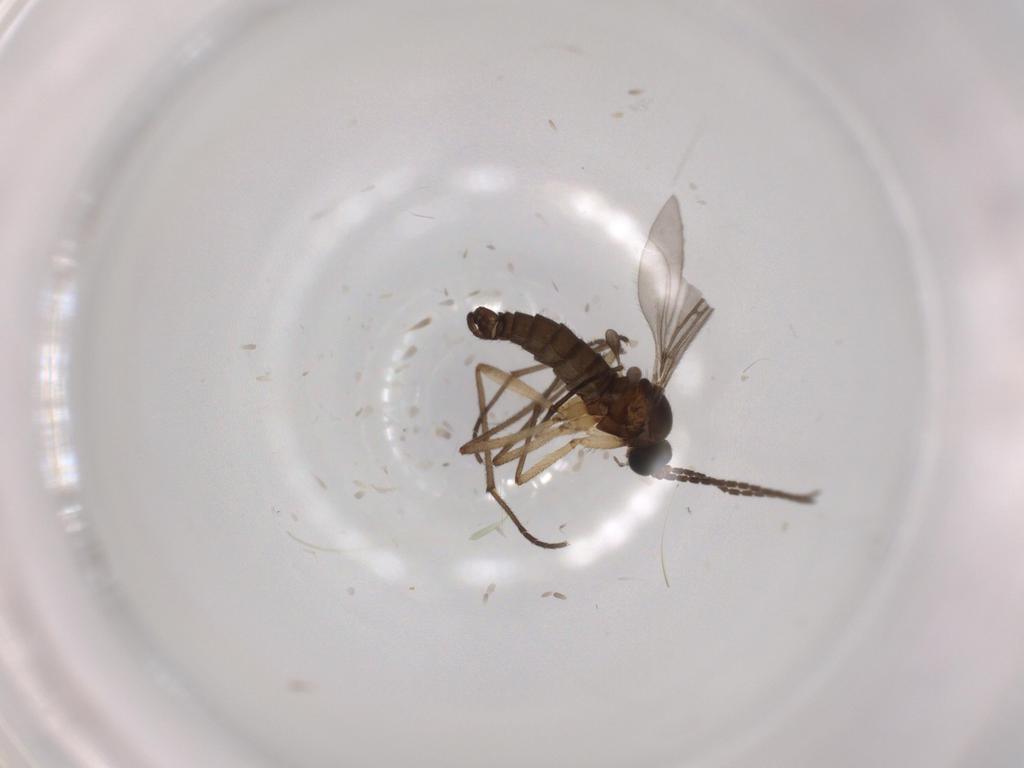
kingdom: Animalia
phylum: Arthropoda
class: Insecta
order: Diptera
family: Sciaridae
